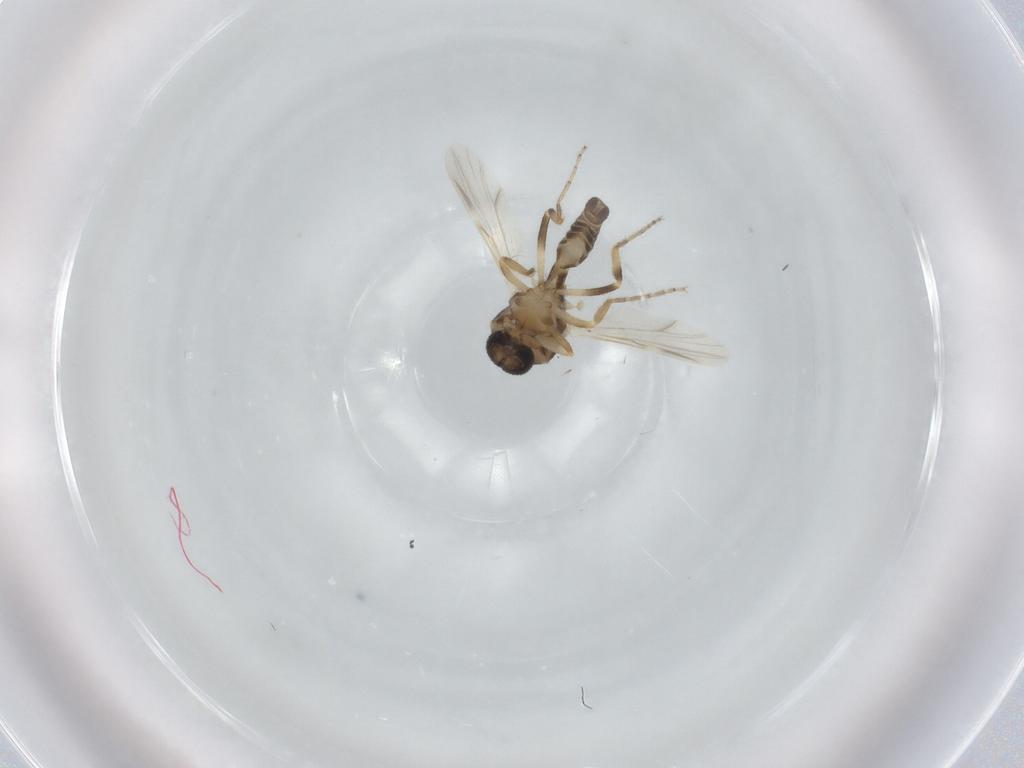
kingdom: Animalia
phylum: Arthropoda
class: Insecta
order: Diptera
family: Ceratopogonidae
